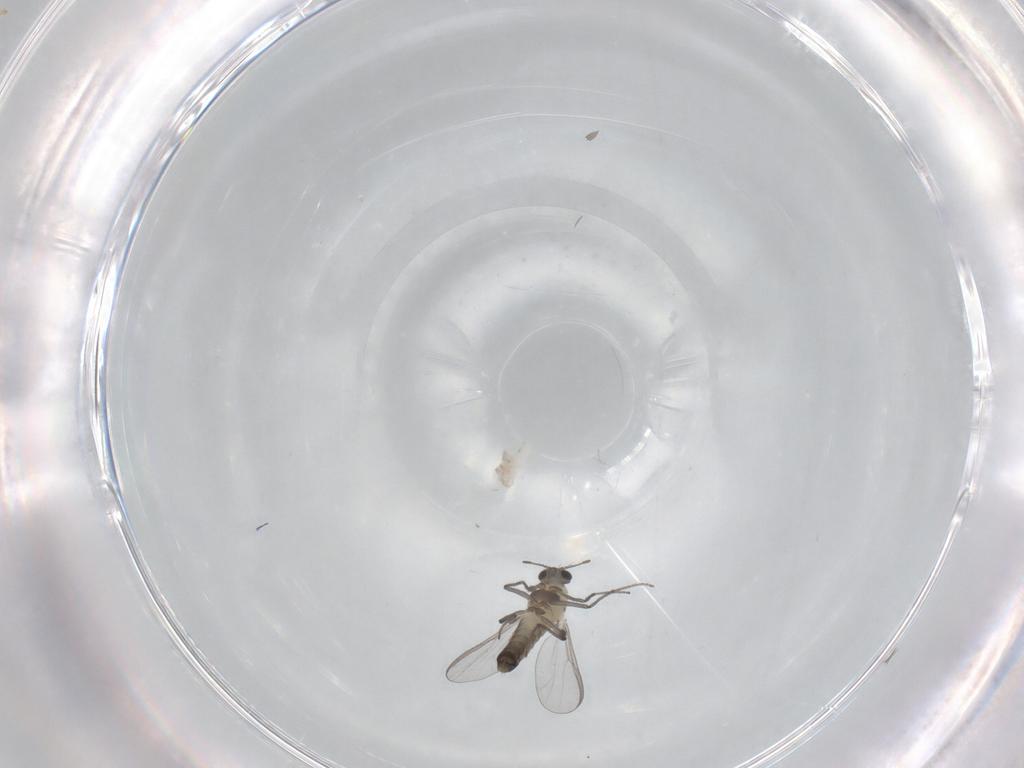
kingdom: Animalia
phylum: Arthropoda
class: Insecta
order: Diptera
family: Chironomidae
